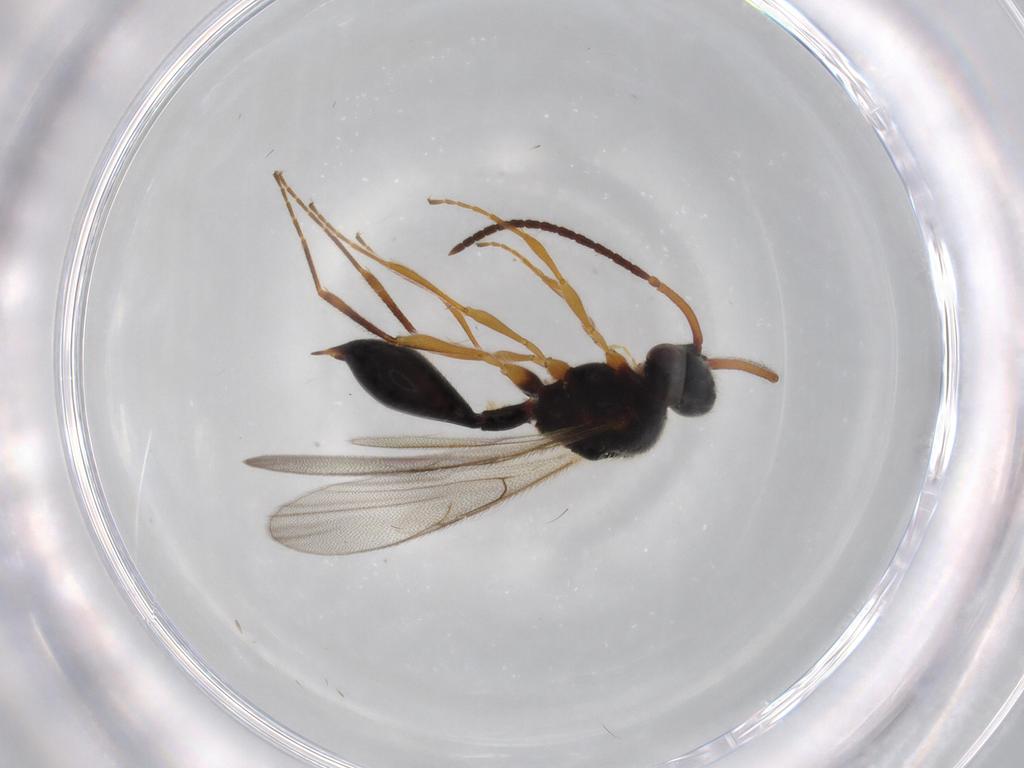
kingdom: Animalia
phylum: Arthropoda
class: Insecta
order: Hymenoptera
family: Diapriidae
